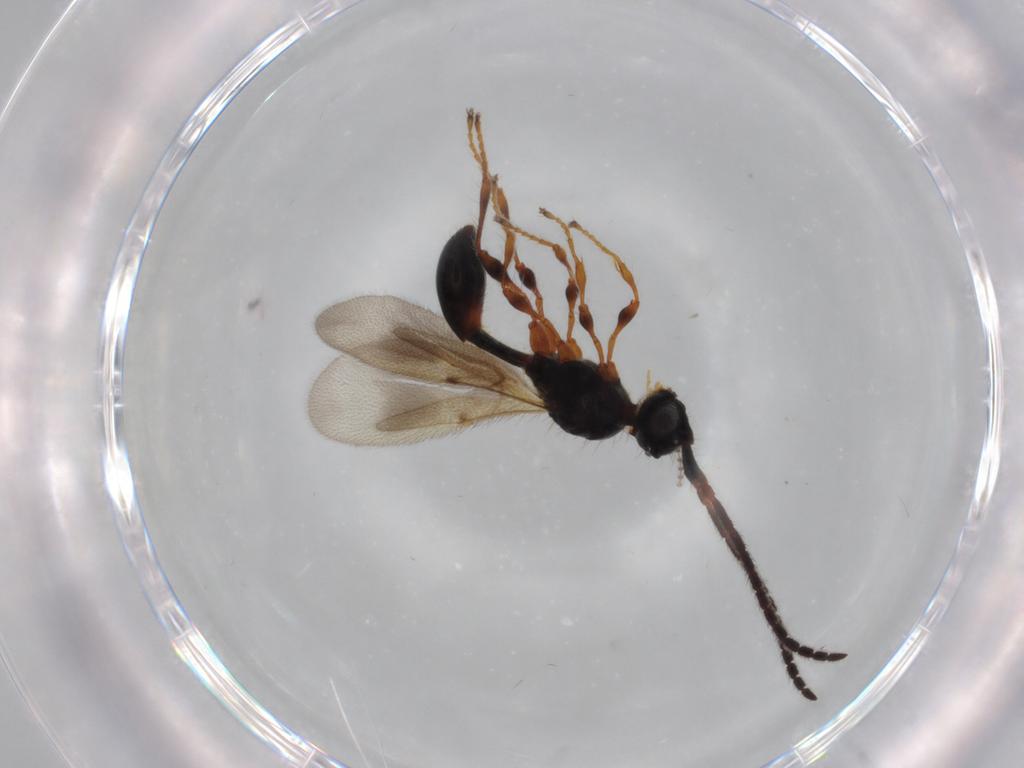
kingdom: Animalia
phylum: Arthropoda
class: Insecta
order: Hymenoptera
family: Diapriidae
